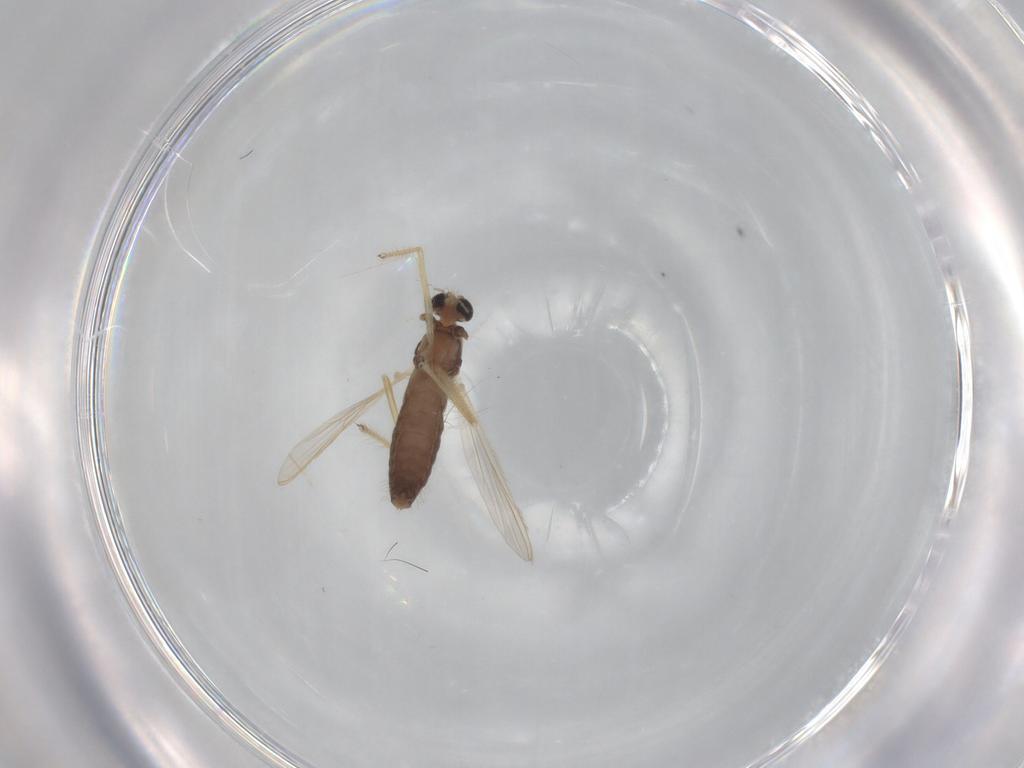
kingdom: Animalia
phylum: Arthropoda
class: Insecta
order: Diptera
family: Chironomidae
